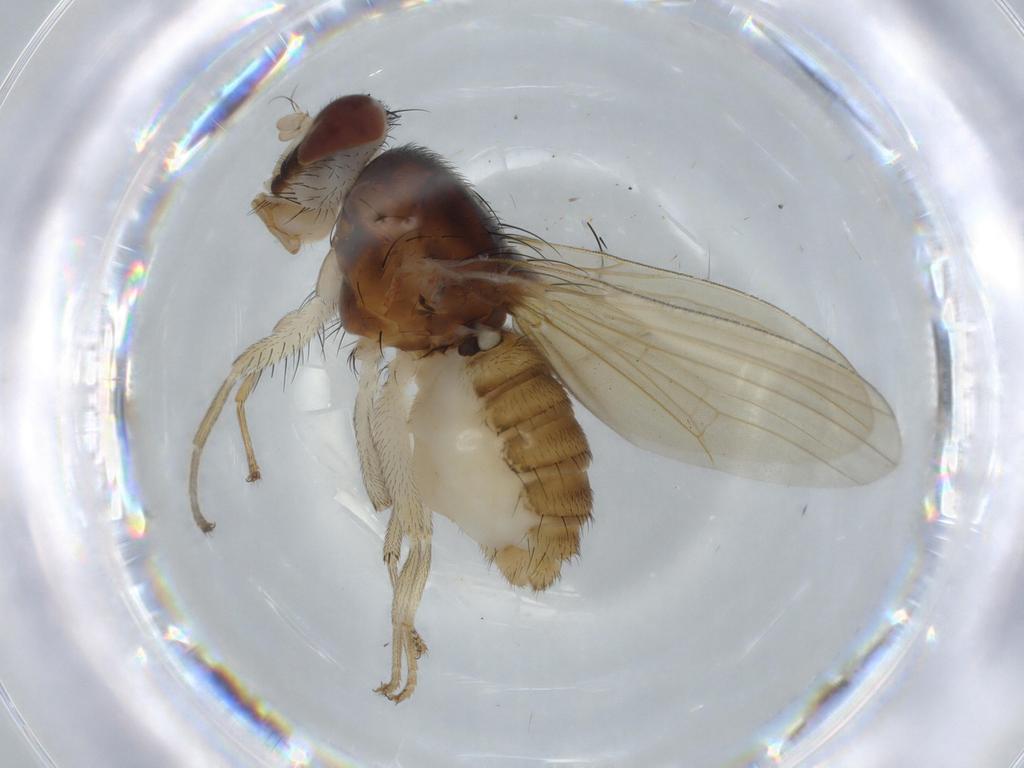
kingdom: Animalia
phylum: Arthropoda
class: Insecta
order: Diptera
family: Lauxaniidae
